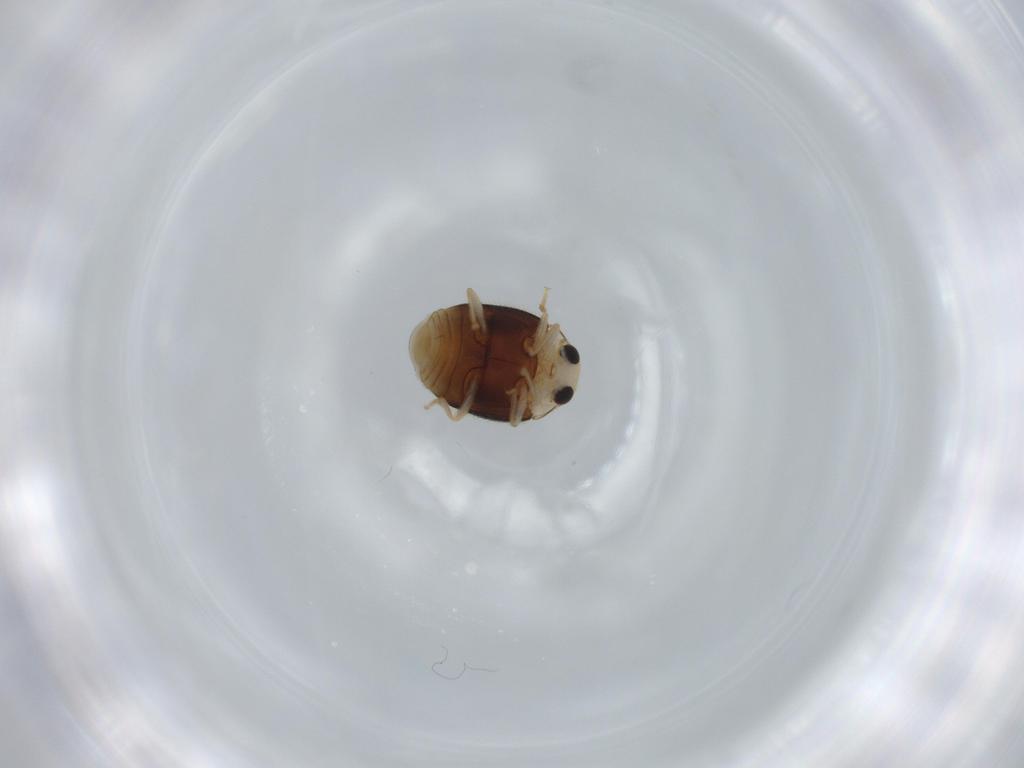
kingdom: Animalia
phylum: Arthropoda
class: Insecta
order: Coleoptera
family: Coccinellidae
